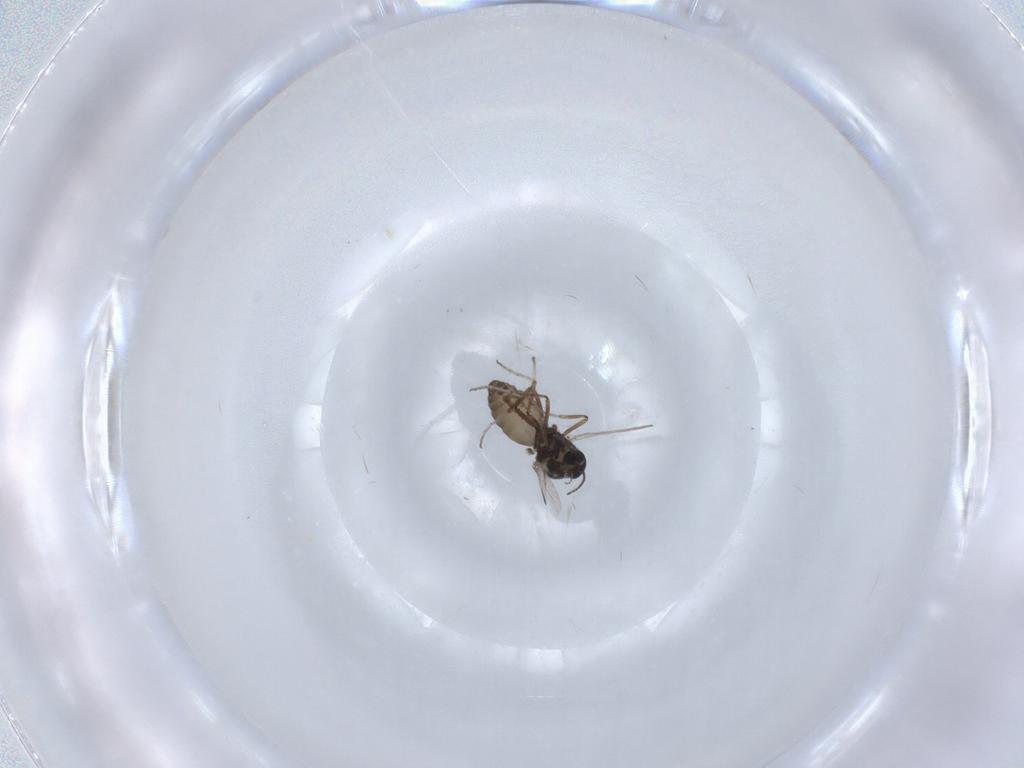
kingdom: Animalia
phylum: Arthropoda
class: Insecta
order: Diptera
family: Ceratopogonidae
